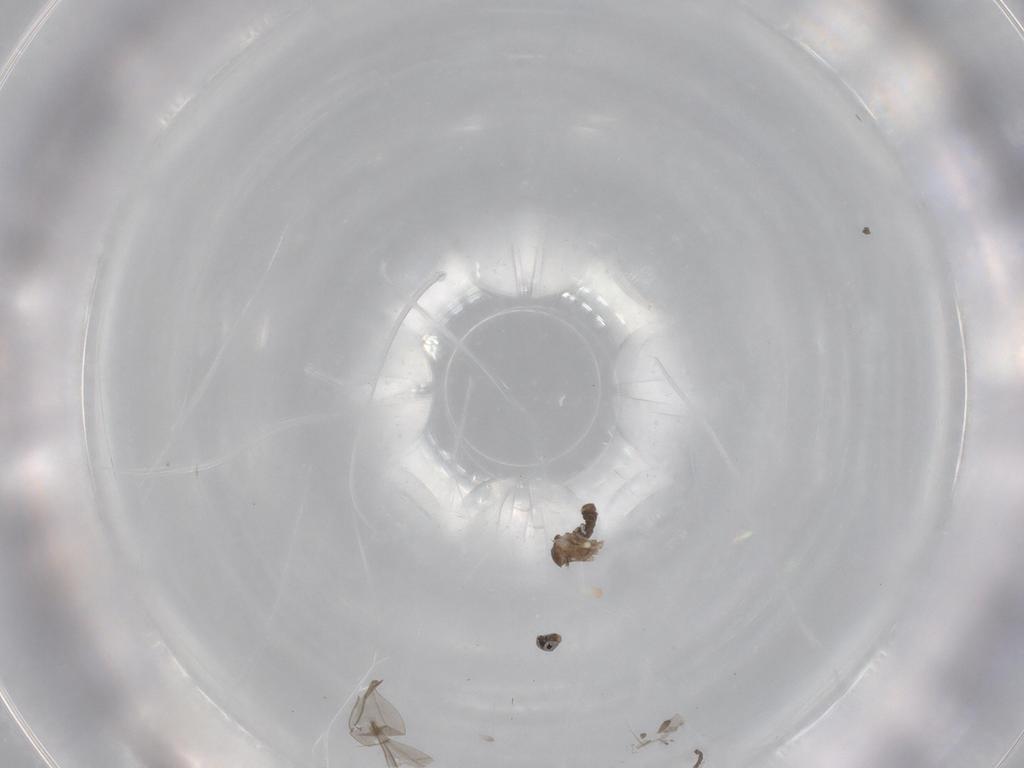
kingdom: Animalia
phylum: Arthropoda
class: Insecta
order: Diptera
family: Cecidomyiidae
